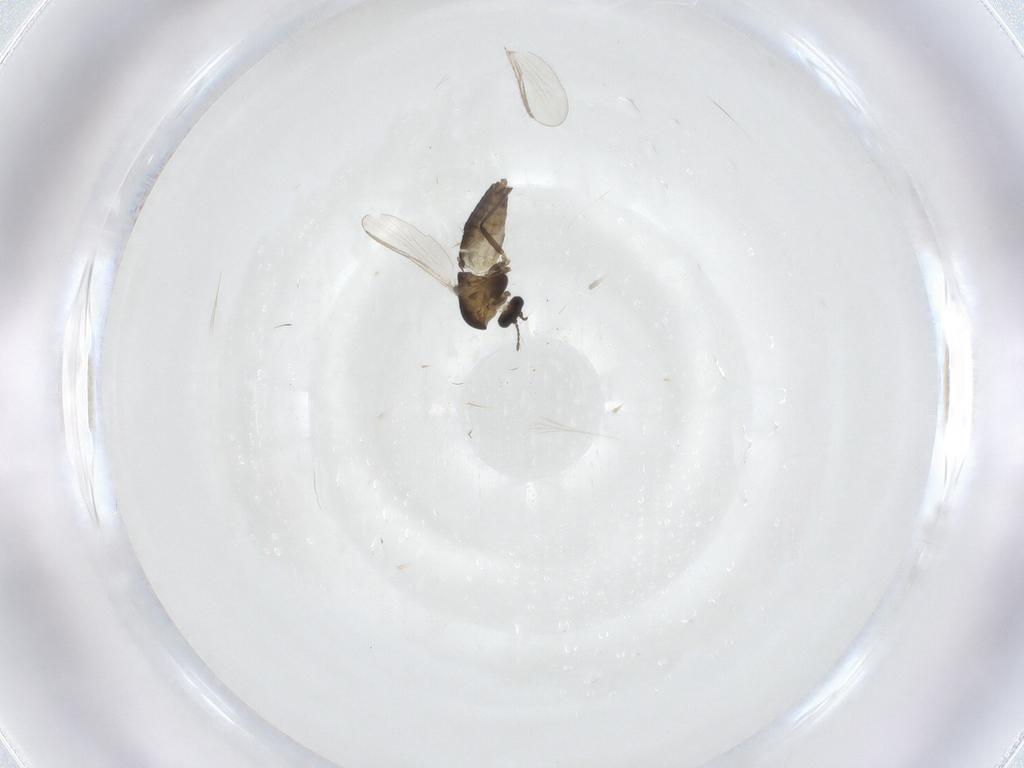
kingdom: Animalia
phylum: Arthropoda
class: Insecta
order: Diptera
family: Chironomidae
